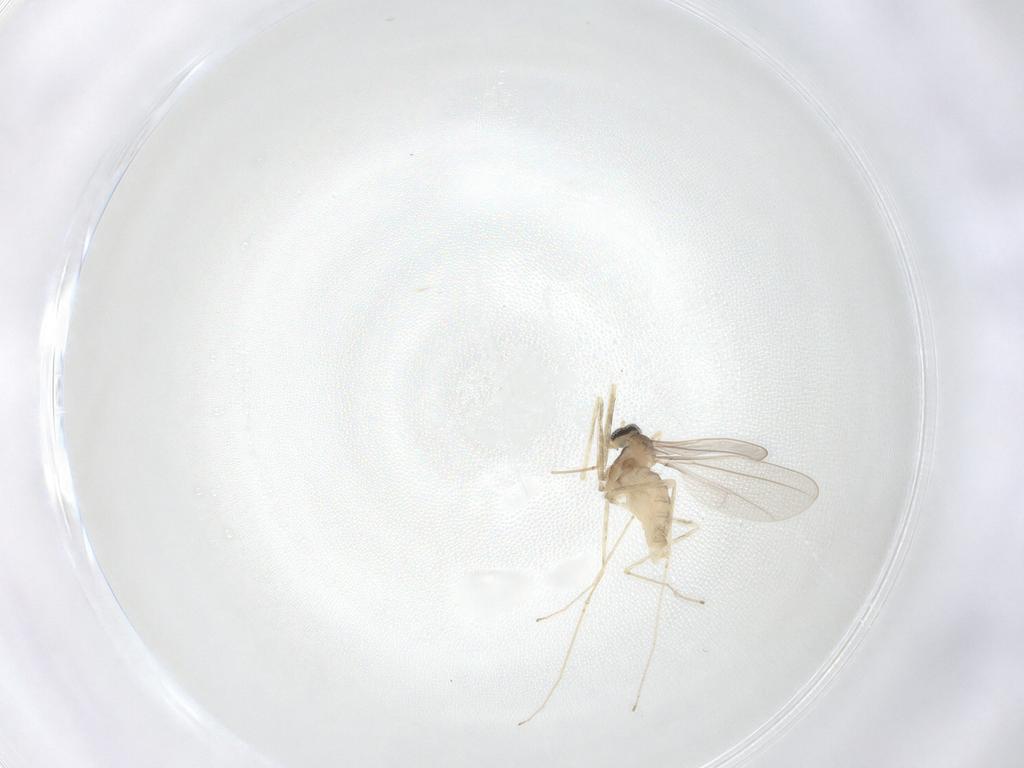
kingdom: Animalia
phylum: Arthropoda
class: Insecta
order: Diptera
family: Cecidomyiidae
